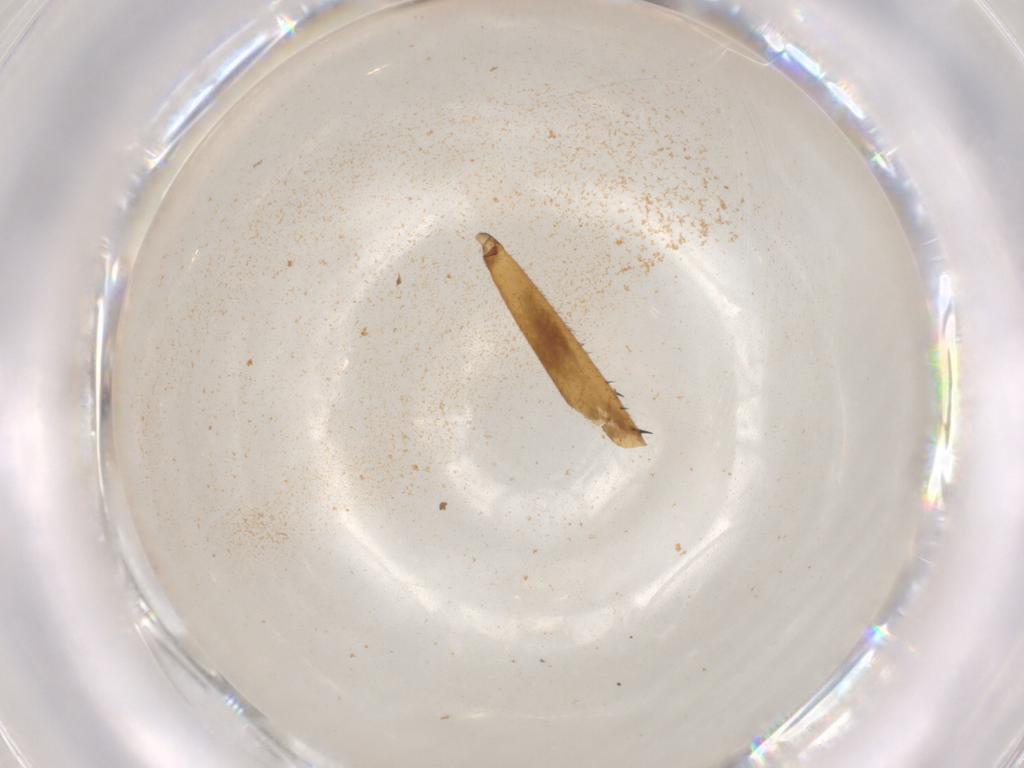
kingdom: Animalia
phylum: Arthropoda
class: Insecta
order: Diptera
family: Neriidae
